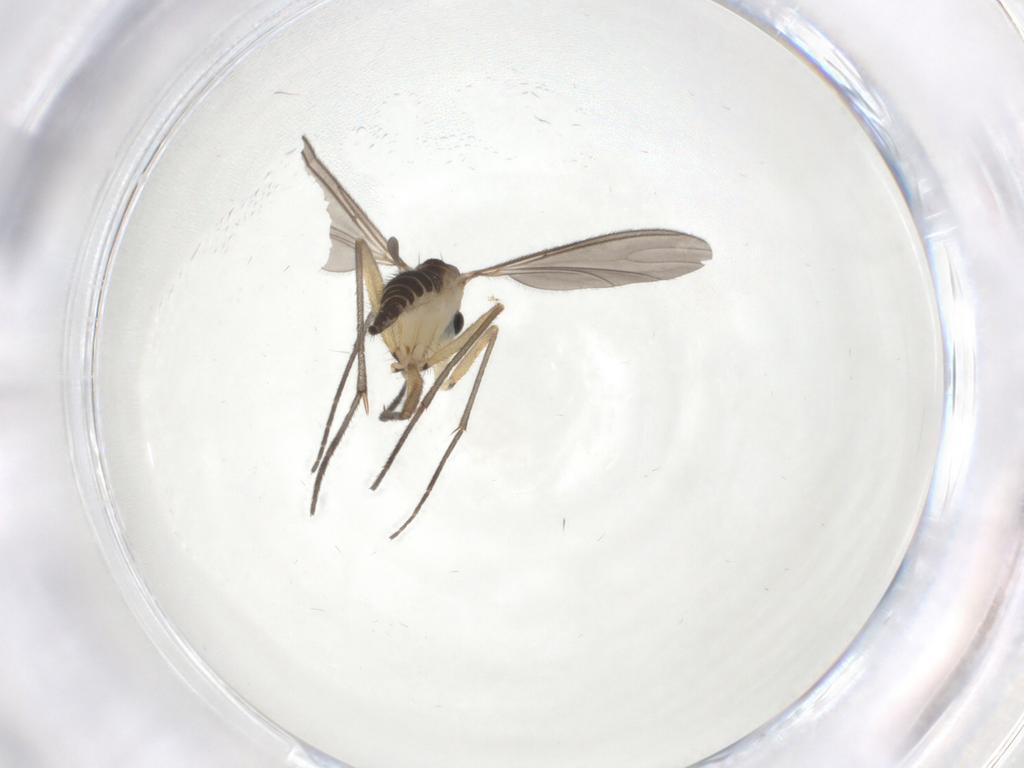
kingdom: Animalia
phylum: Arthropoda
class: Insecta
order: Diptera
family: Sciaridae
